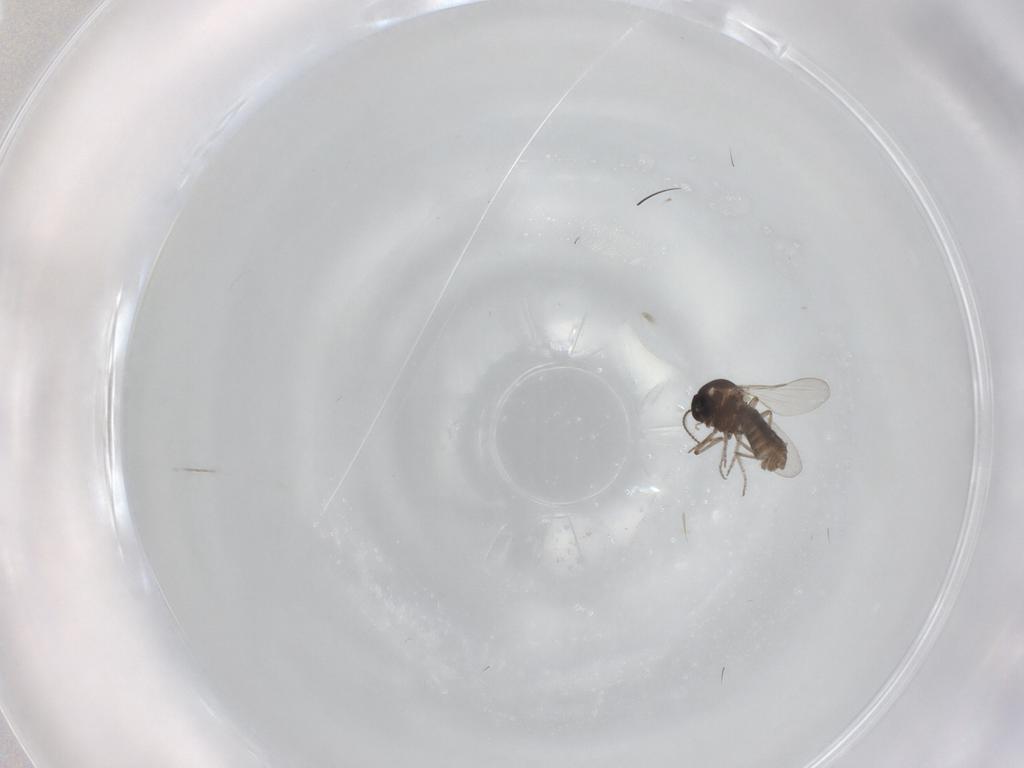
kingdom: Animalia
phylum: Arthropoda
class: Insecta
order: Diptera
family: Ceratopogonidae
